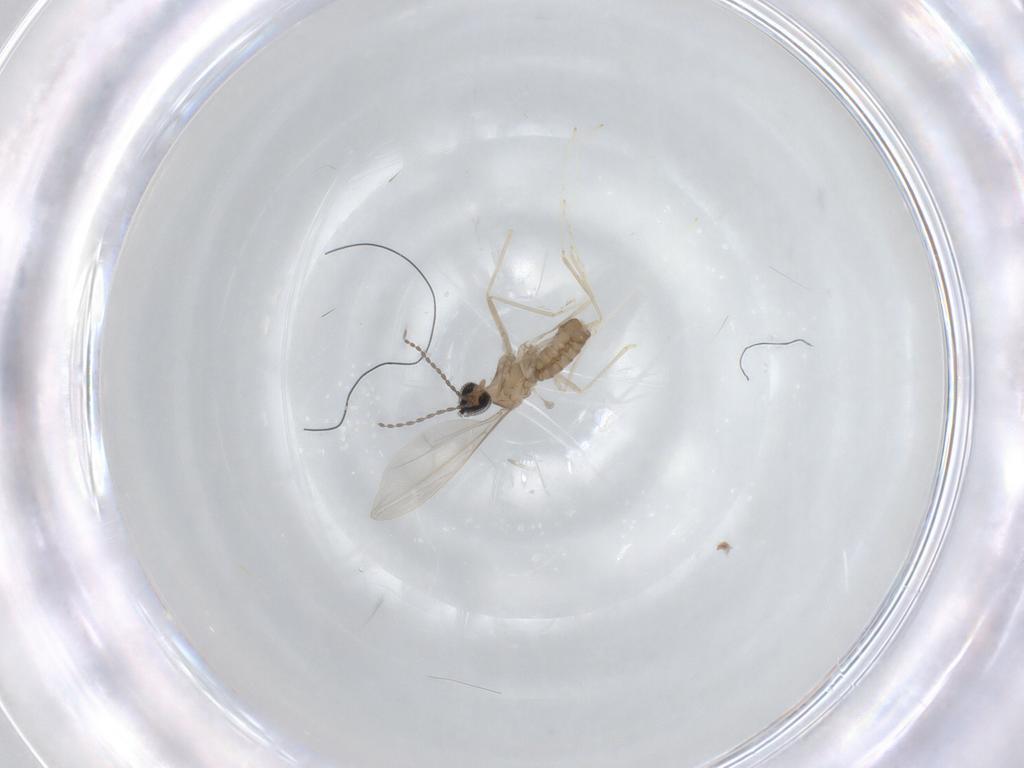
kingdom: Animalia
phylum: Arthropoda
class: Insecta
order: Diptera
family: Cecidomyiidae
